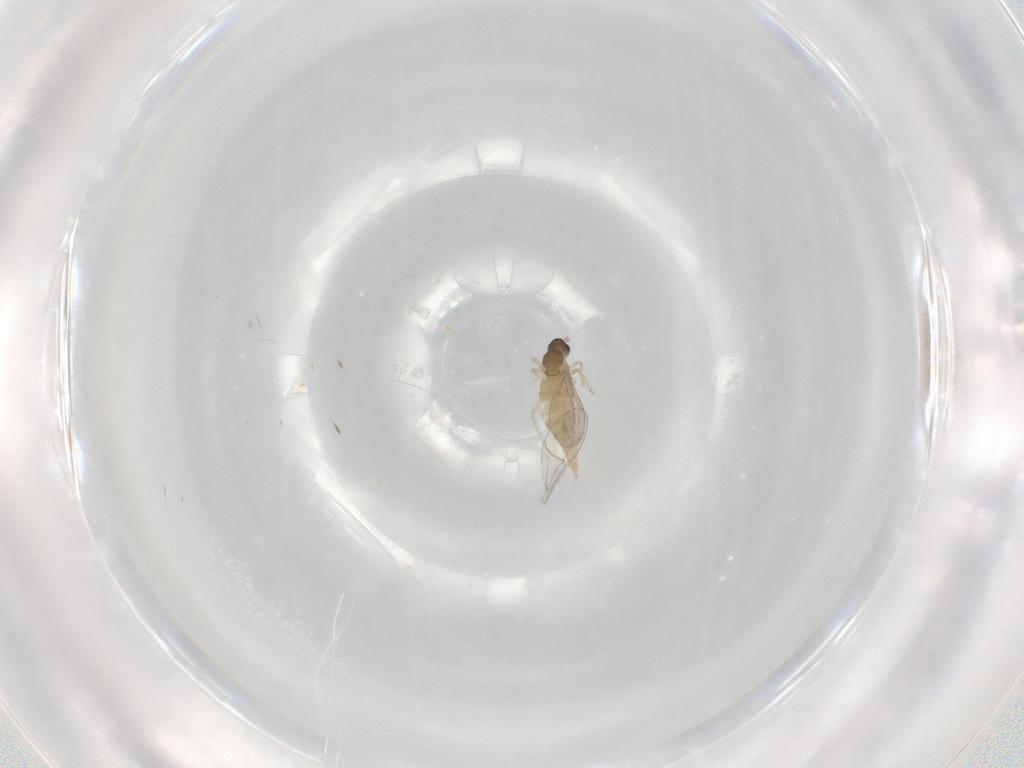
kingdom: Animalia
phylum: Arthropoda
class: Insecta
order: Diptera
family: Cecidomyiidae
